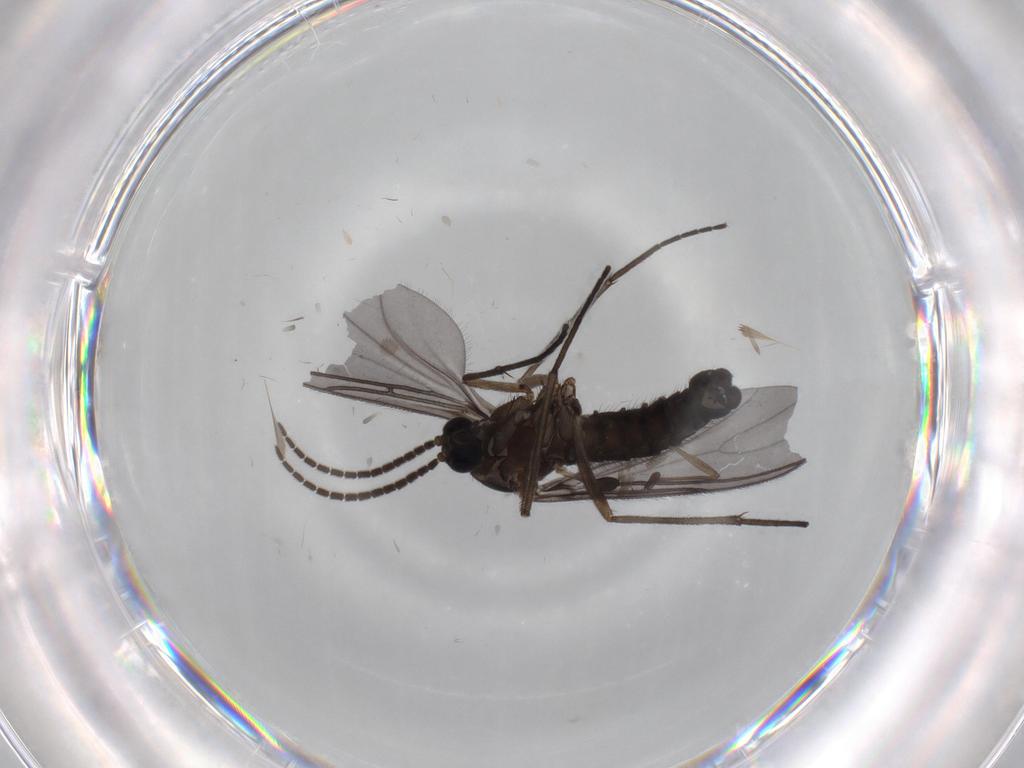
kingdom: Animalia
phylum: Arthropoda
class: Insecta
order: Diptera
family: Sciaridae
